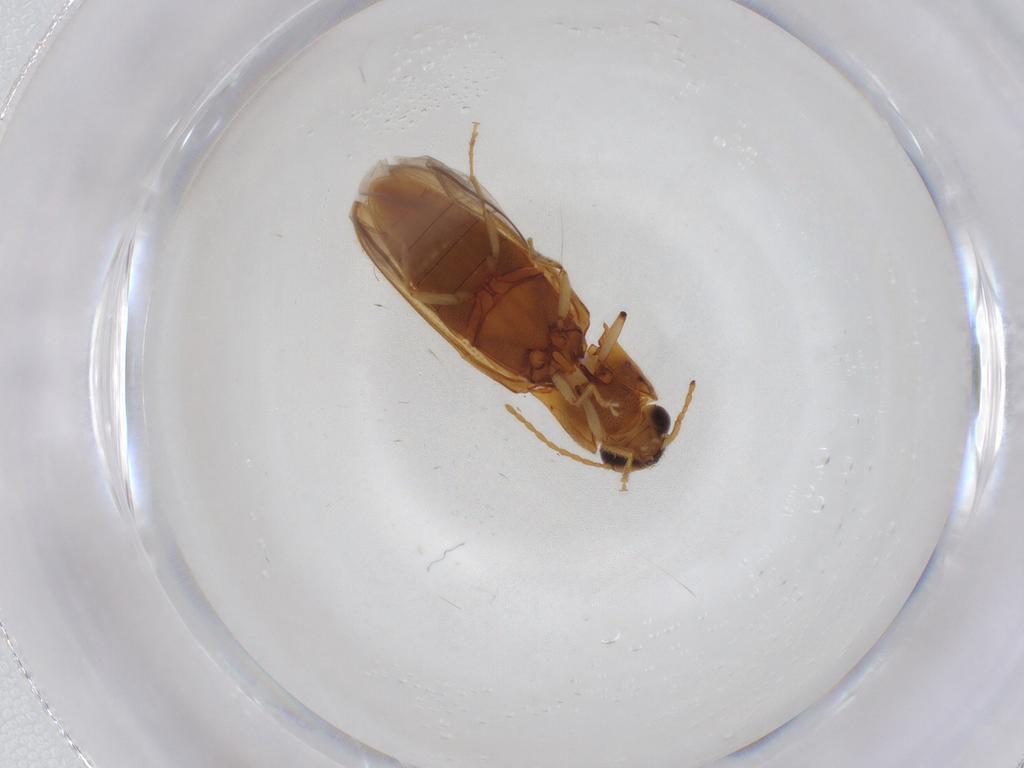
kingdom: Animalia
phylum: Arthropoda
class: Insecta
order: Coleoptera
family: Elateridae
